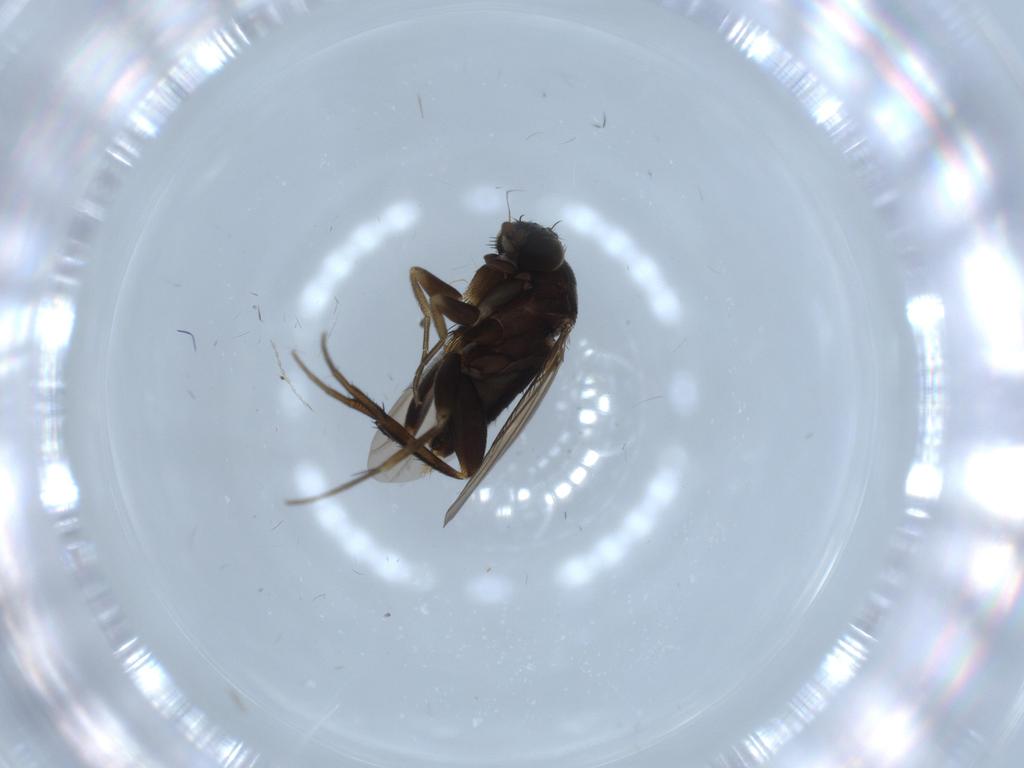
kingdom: Animalia
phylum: Arthropoda
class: Insecta
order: Diptera
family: Phoridae
